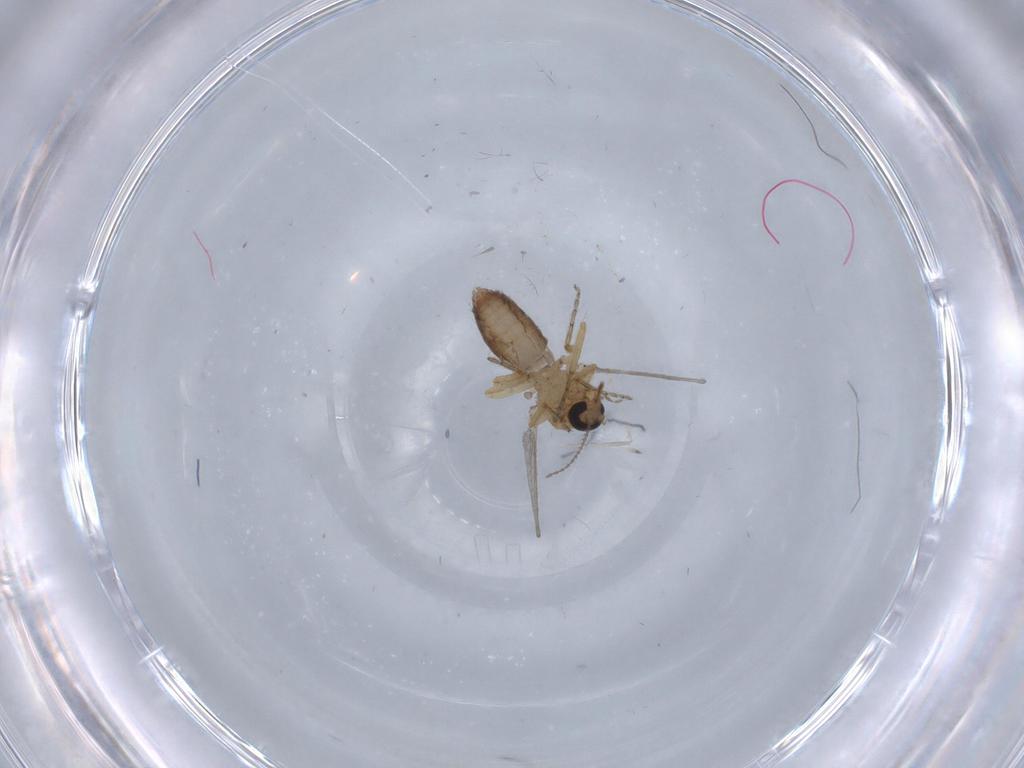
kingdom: Animalia
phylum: Arthropoda
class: Insecta
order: Diptera
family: Ceratopogonidae
